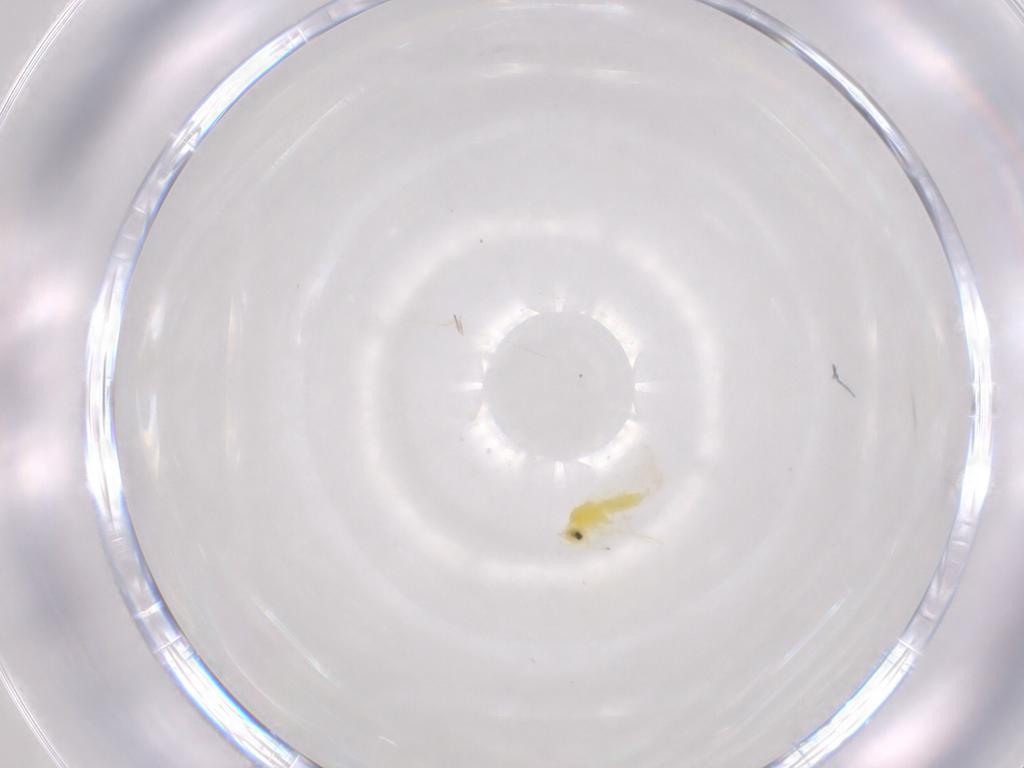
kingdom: Animalia
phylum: Arthropoda
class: Insecta
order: Hemiptera
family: Aleyrodidae
